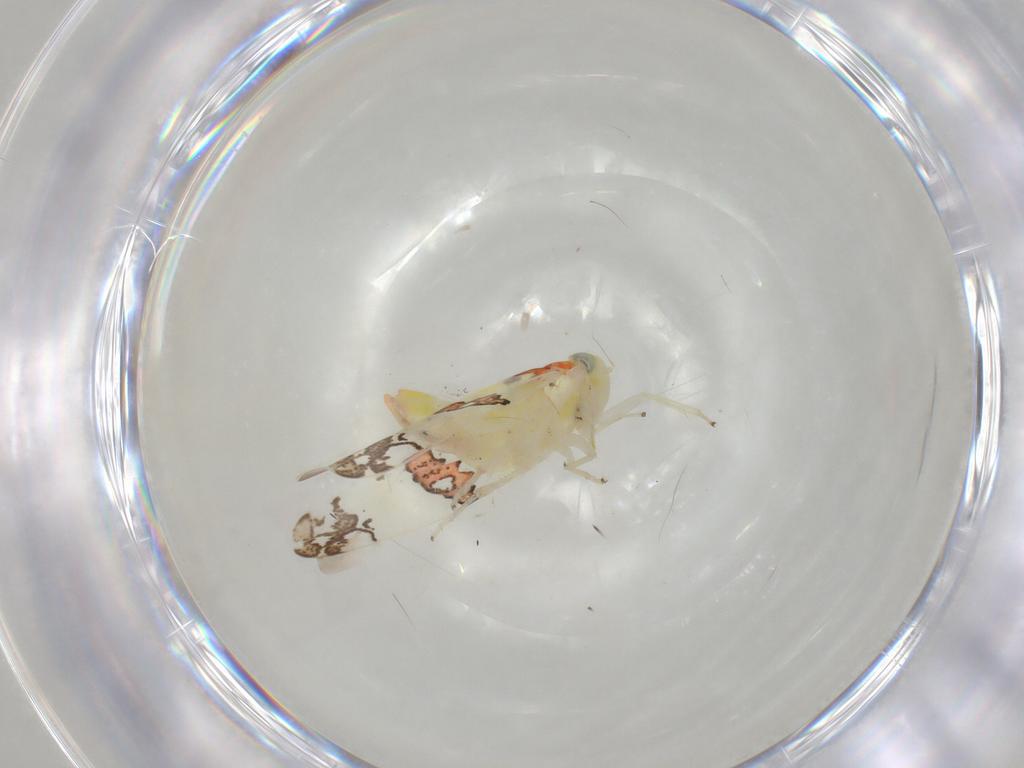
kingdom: Animalia
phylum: Arthropoda
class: Insecta
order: Hemiptera
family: Cicadellidae
